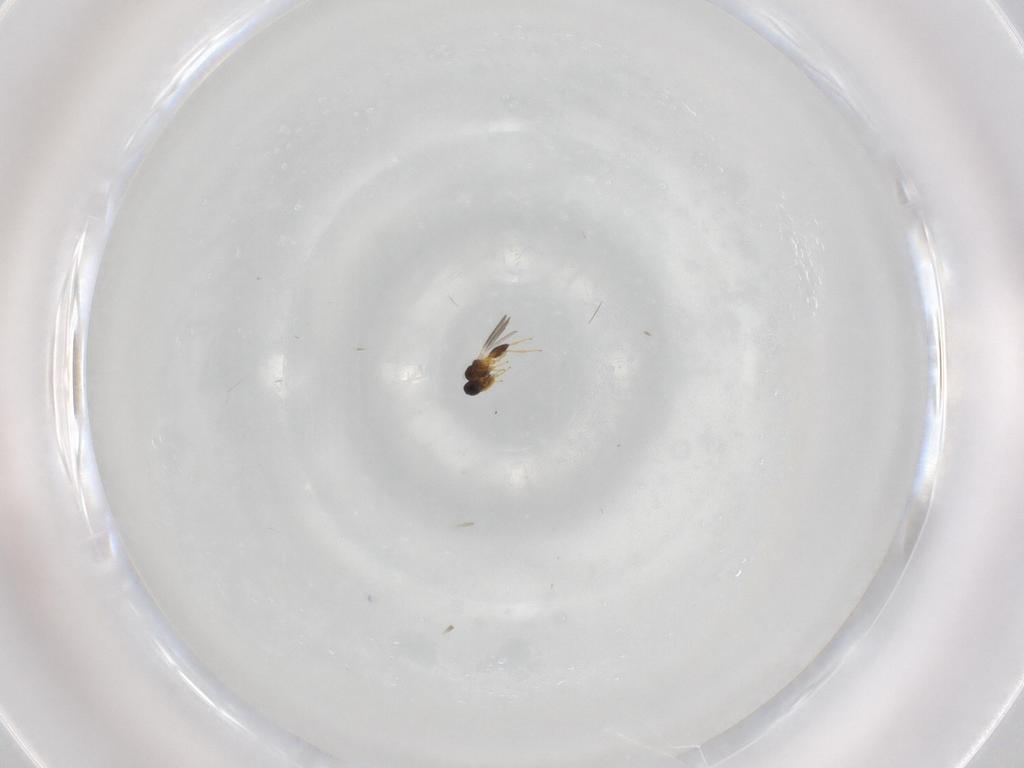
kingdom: Animalia
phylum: Arthropoda
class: Insecta
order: Hymenoptera
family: Platygastridae
